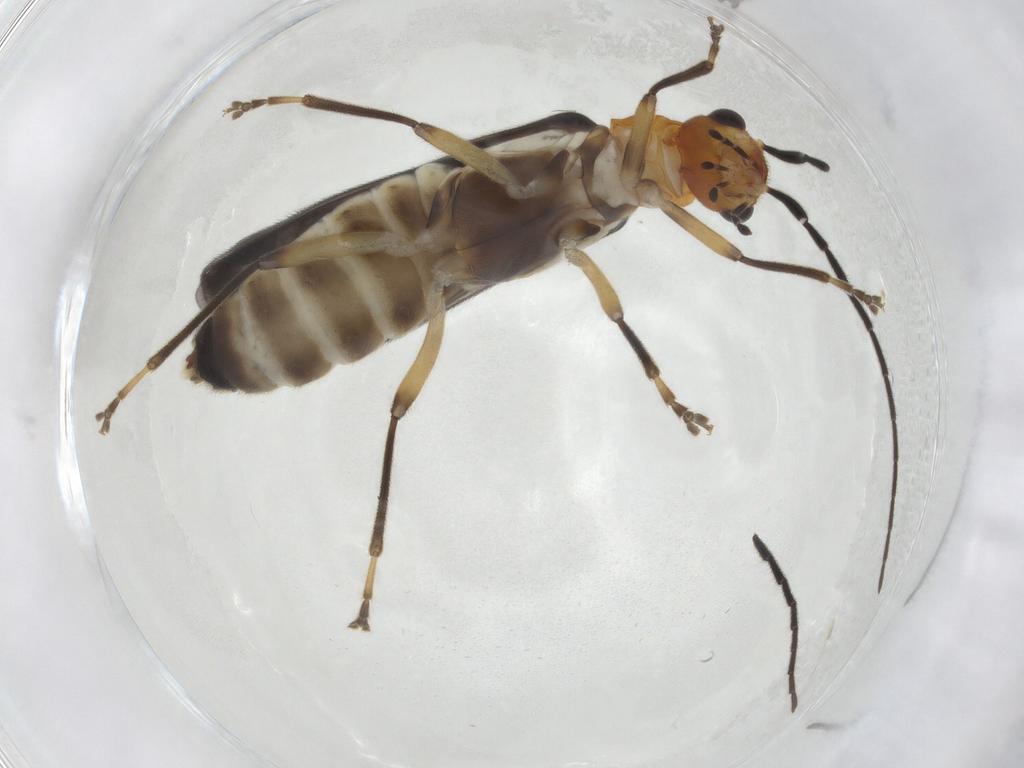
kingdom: Animalia
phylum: Arthropoda
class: Insecta
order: Coleoptera
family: Cantharidae
